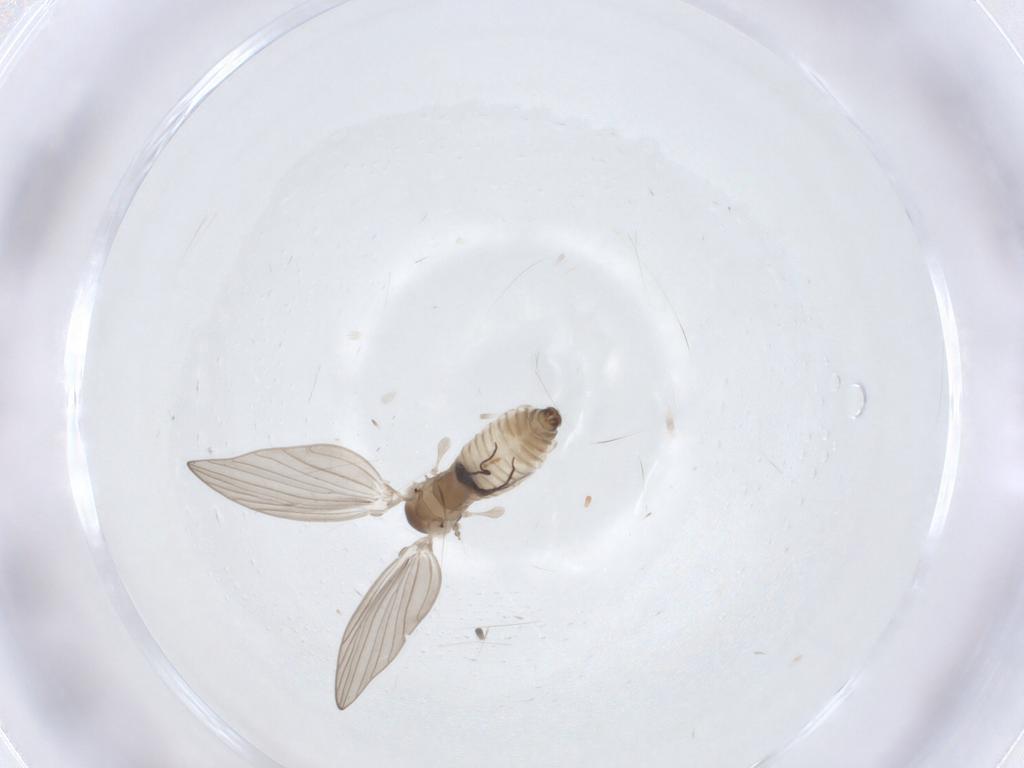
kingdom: Animalia
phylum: Arthropoda
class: Insecta
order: Diptera
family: Psychodidae
